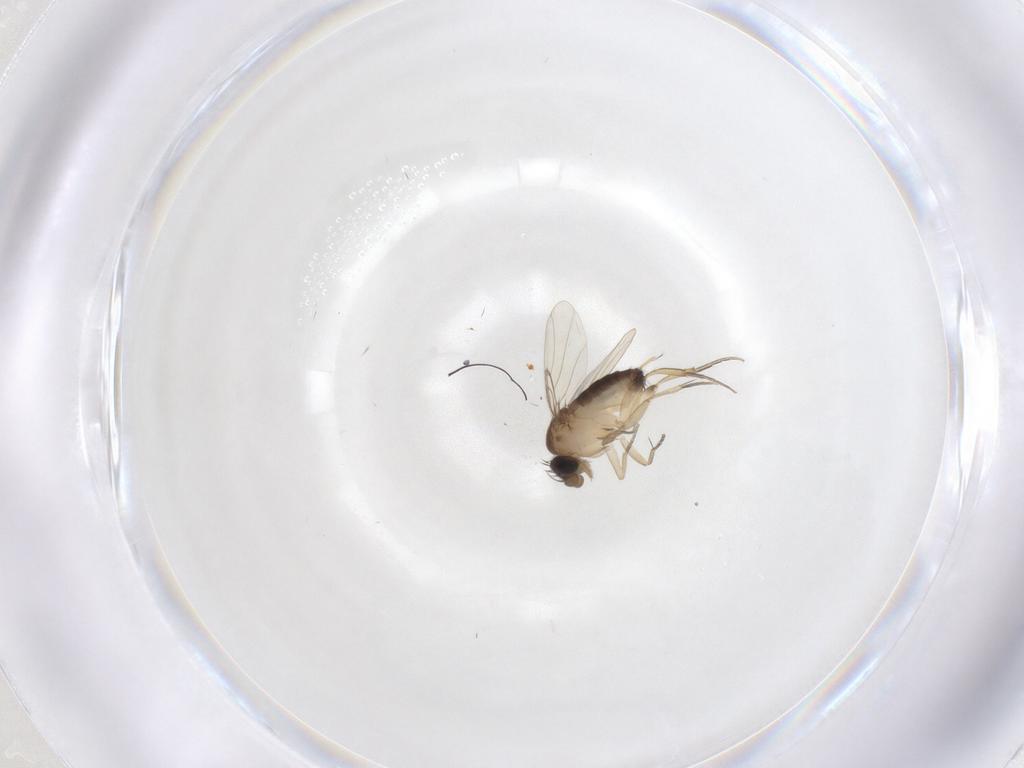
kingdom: Animalia
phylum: Arthropoda
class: Insecta
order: Diptera
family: Phoridae
